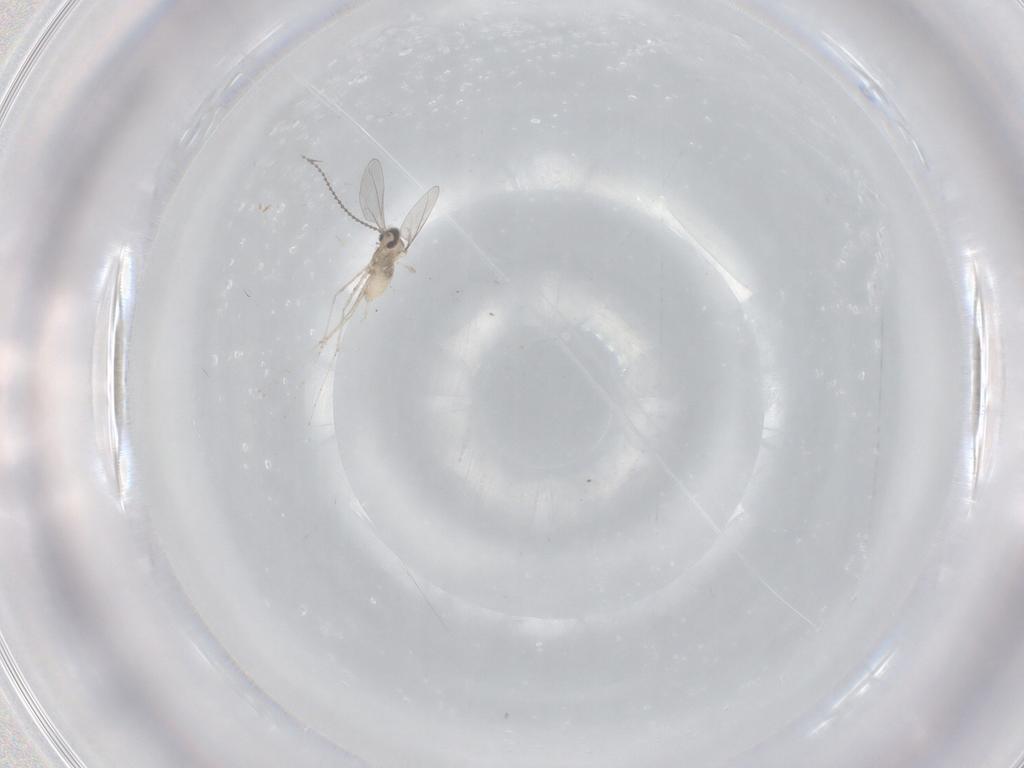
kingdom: Animalia
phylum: Arthropoda
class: Insecta
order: Diptera
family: Cecidomyiidae
